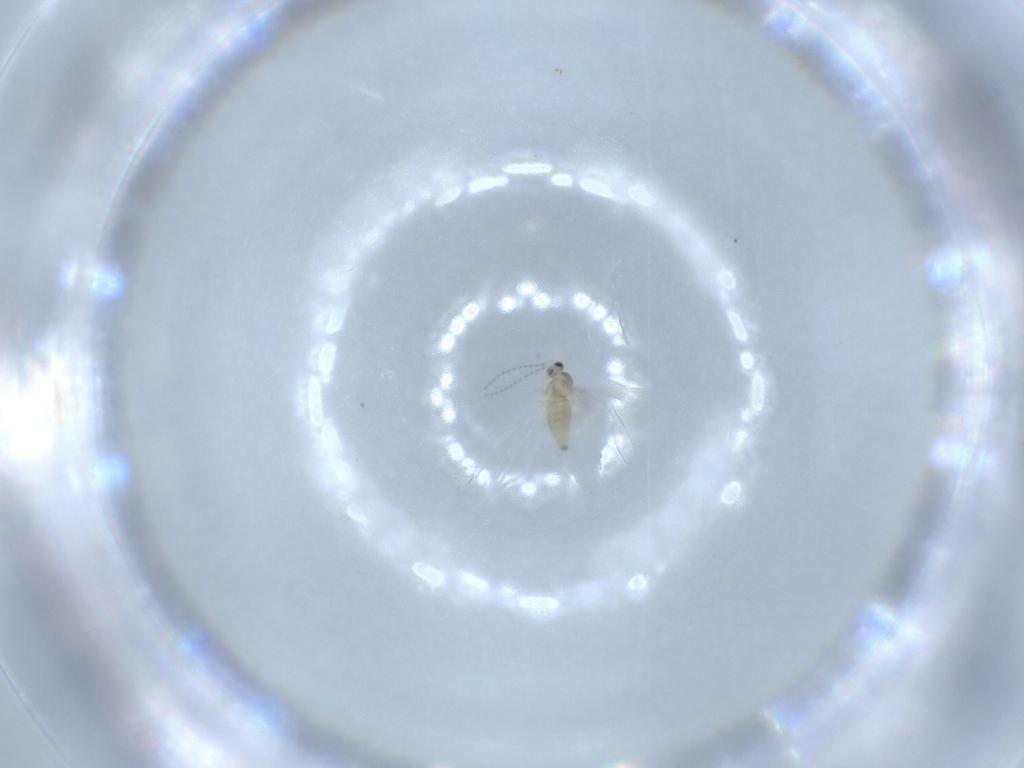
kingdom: Animalia
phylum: Arthropoda
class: Insecta
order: Diptera
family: Cecidomyiidae
